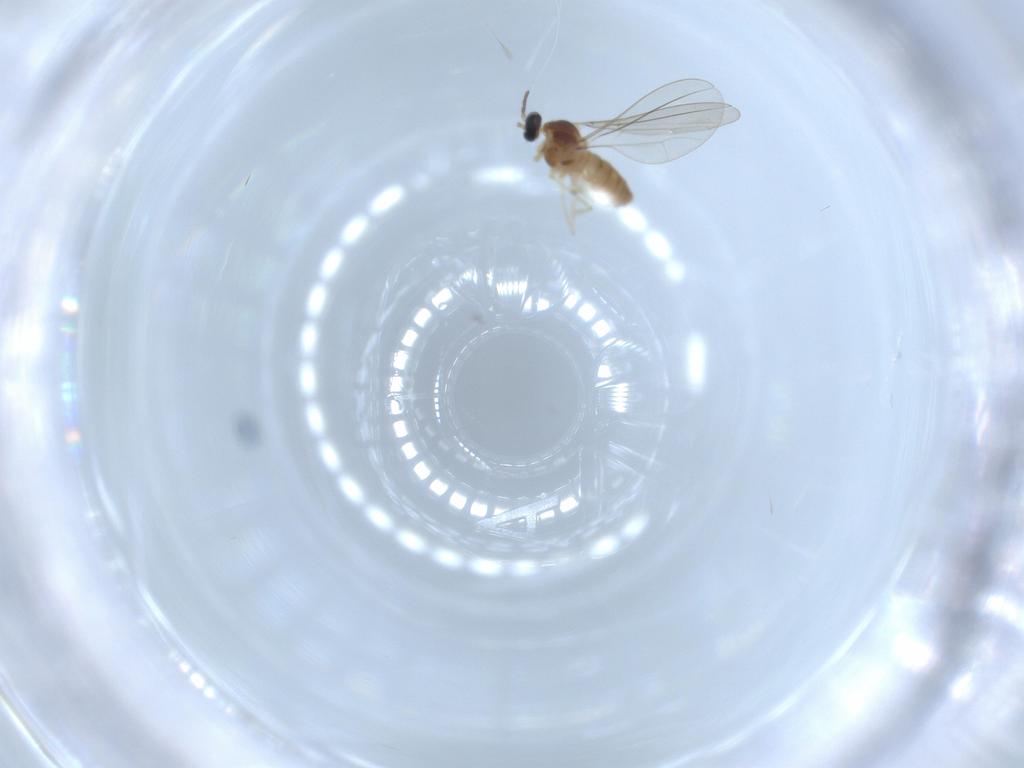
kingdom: Animalia
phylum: Arthropoda
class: Insecta
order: Diptera
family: Cecidomyiidae
